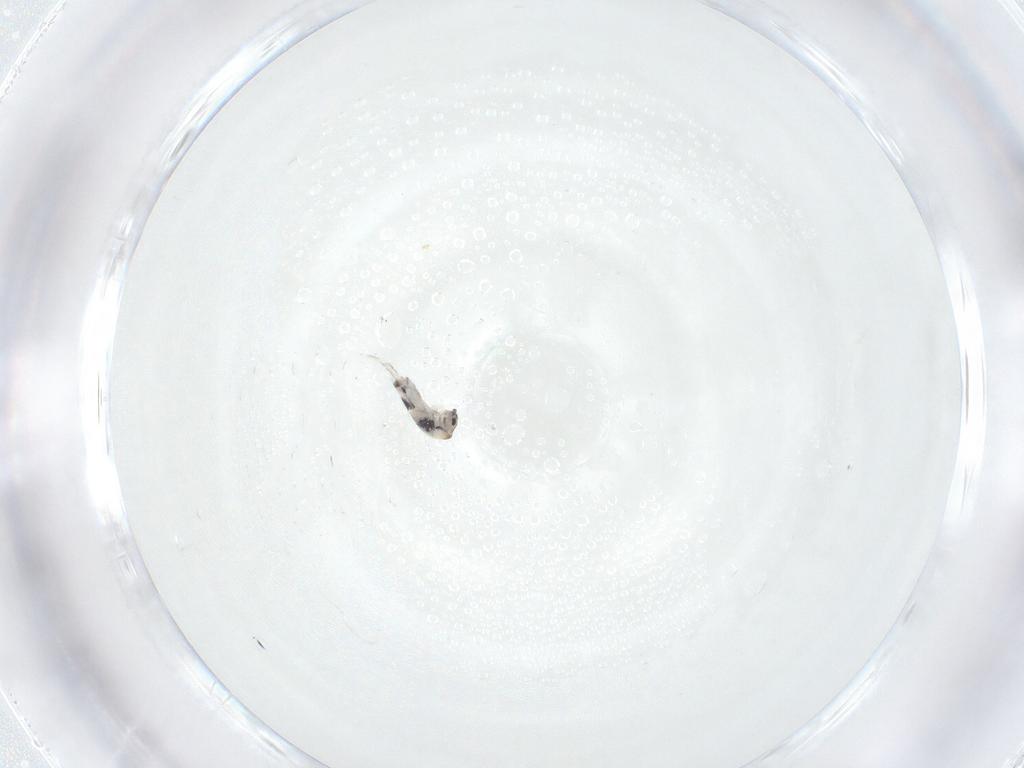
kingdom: Animalia
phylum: Arthropoda
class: Collembola
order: Entomobryomorpha
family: Entomobryidae
